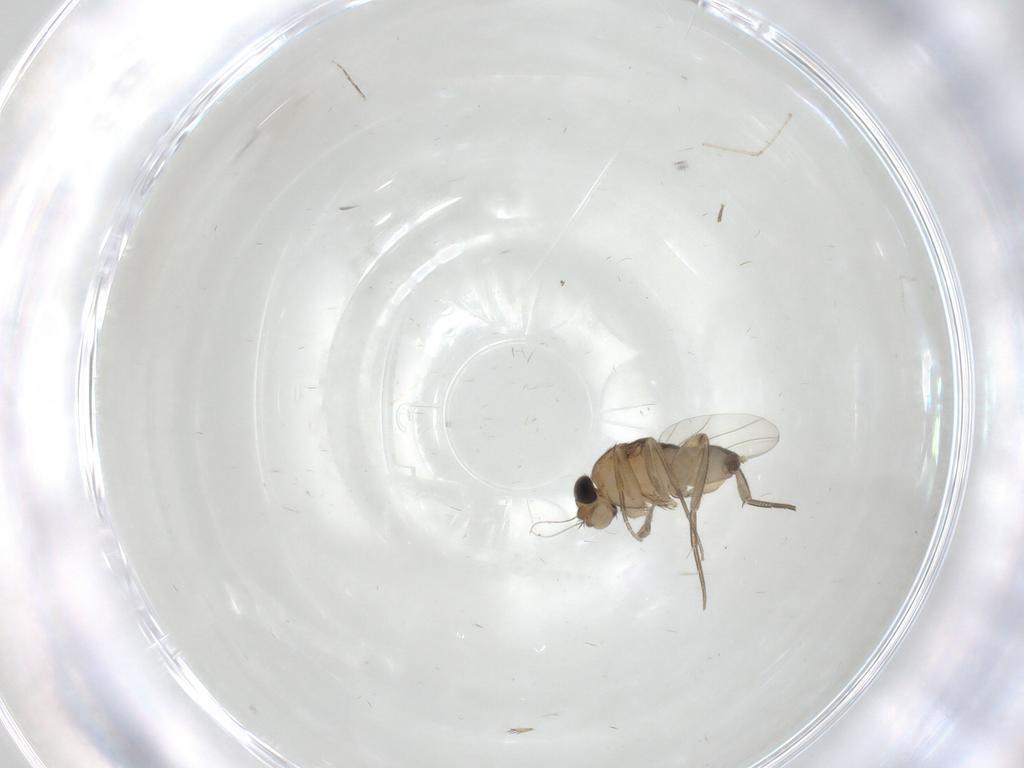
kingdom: Animalia
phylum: Arthropoda
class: Insecta
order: Diptera
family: Phoridae
